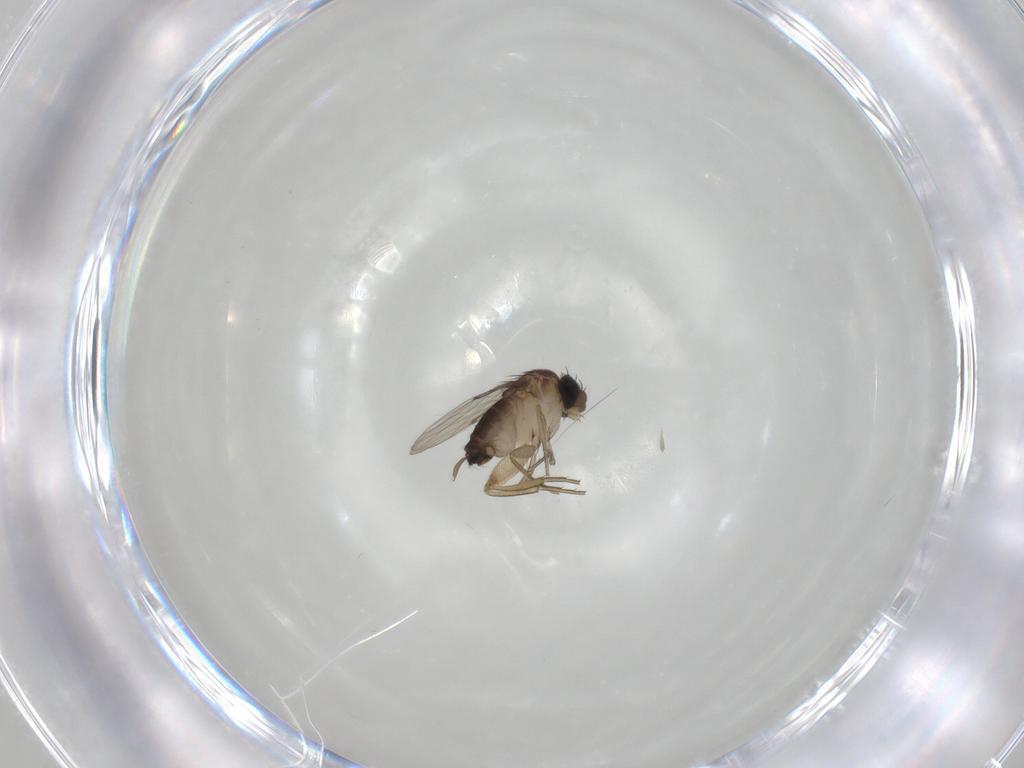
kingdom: Animalia
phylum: Arthropoda
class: Insecta
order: Diptera
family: Phoridae
